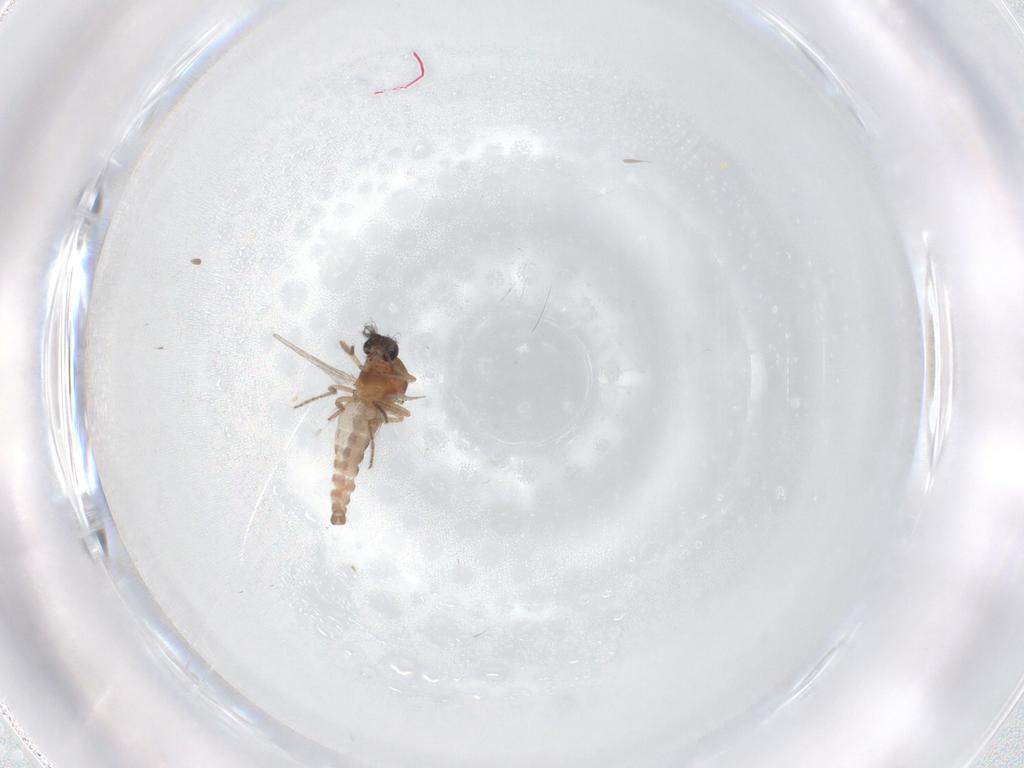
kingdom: Animalia
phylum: Arthropoda
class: Insecta
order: Diptera
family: Ceratopogonidae
